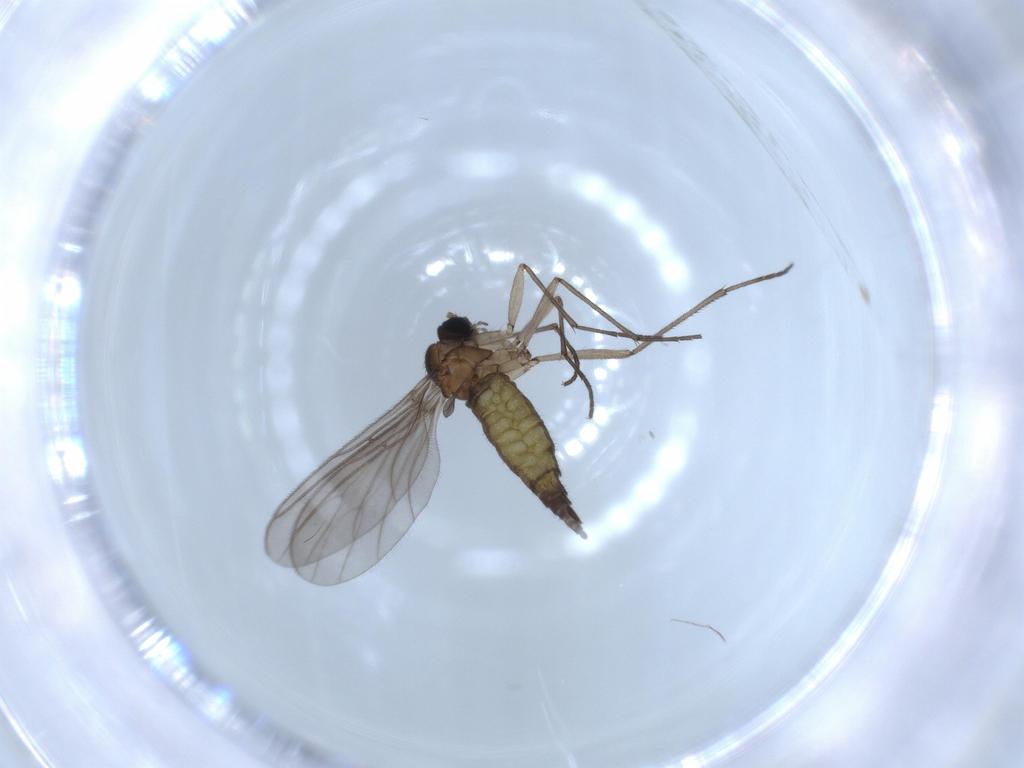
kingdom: Animalia
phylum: Arthropoda
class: Insecta
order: Diptera
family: Sciaridae
